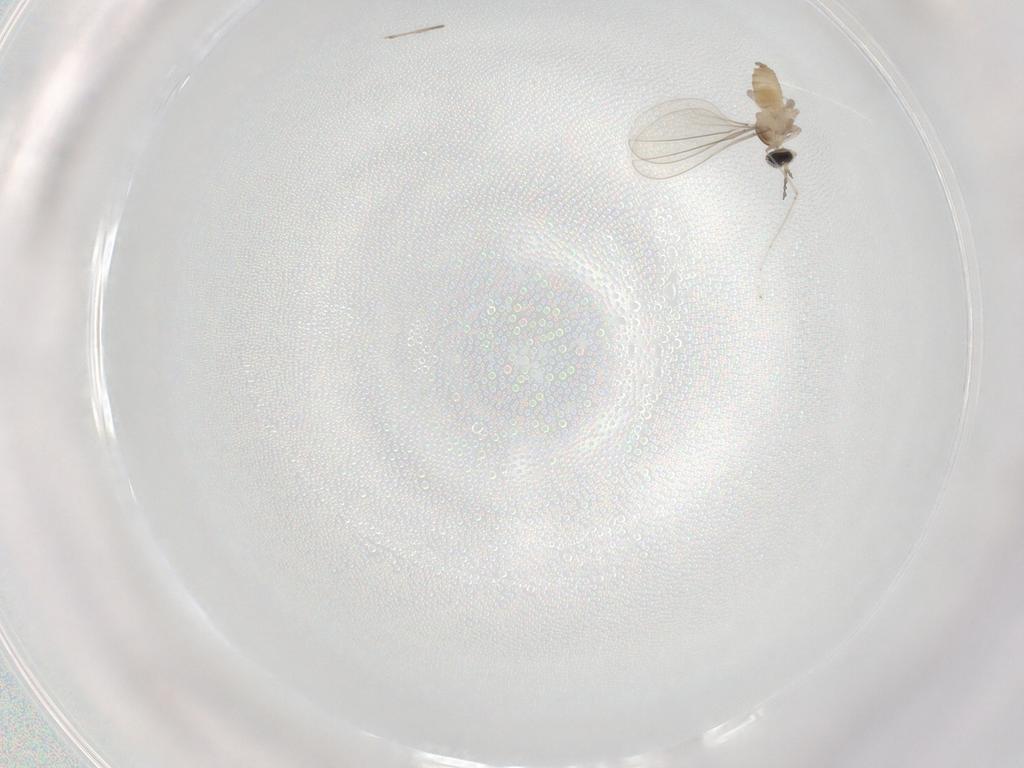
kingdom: Animalia
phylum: Arthropoda
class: Insecta
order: Diptera
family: Cecidomyiidae
